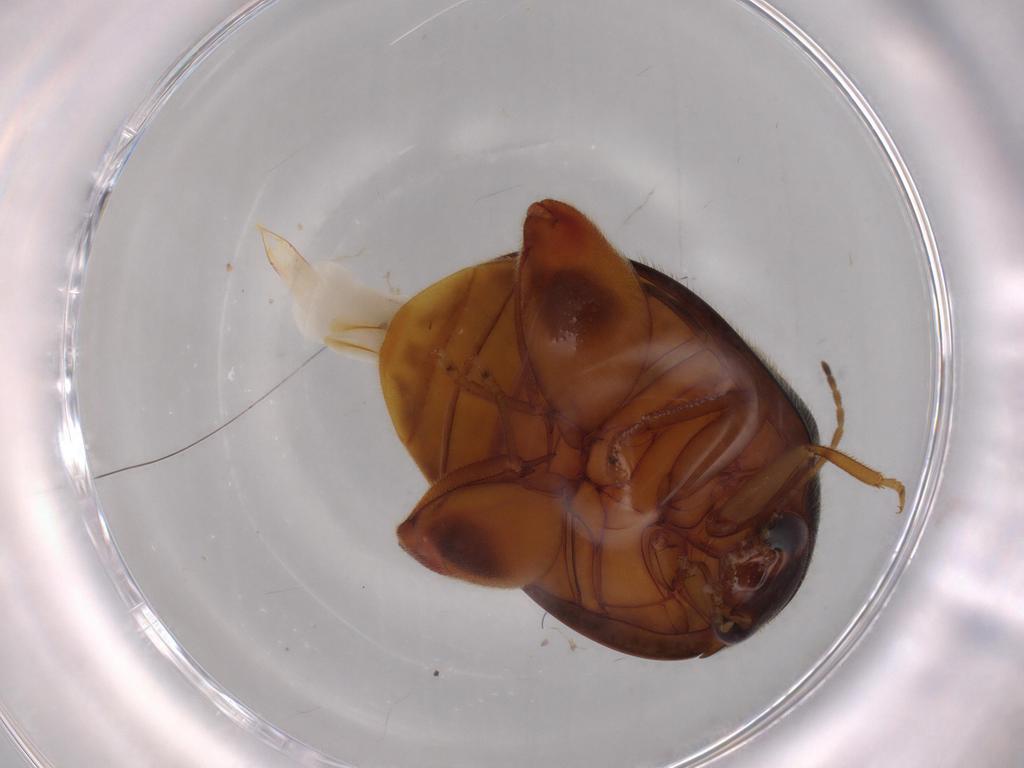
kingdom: Animalia
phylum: Arthropoda
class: Insecta
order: Coleoptera
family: Scirtidae
